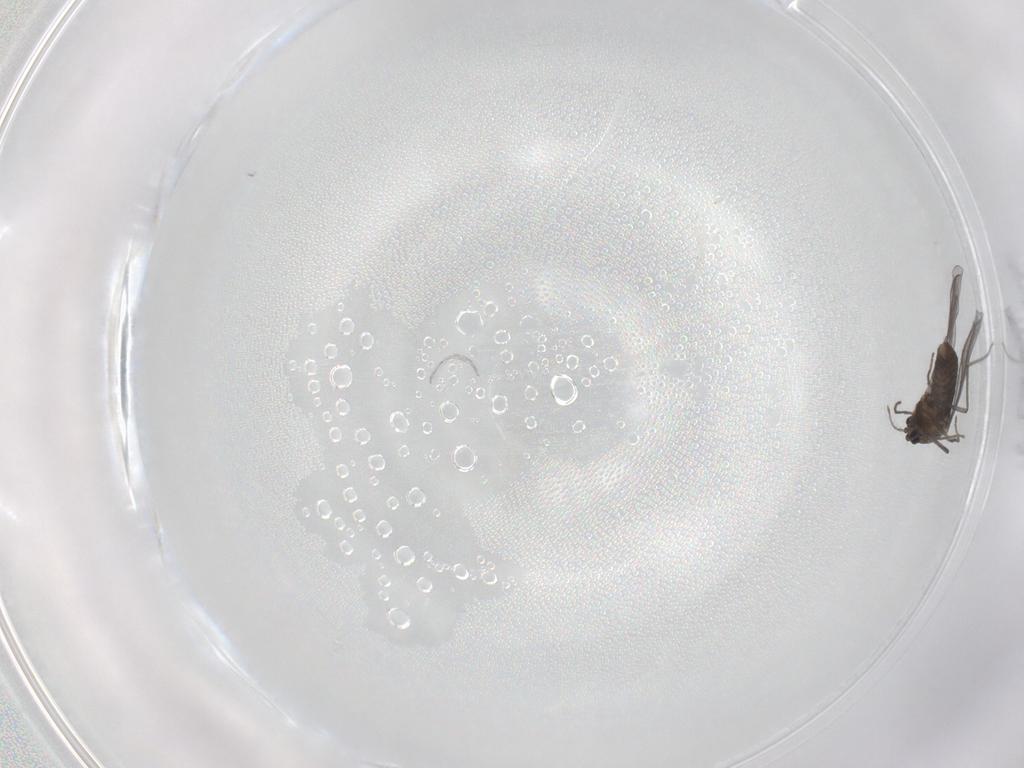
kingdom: Animalia
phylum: Arthropoda
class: Insecta
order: Diptera
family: Chironomidae
